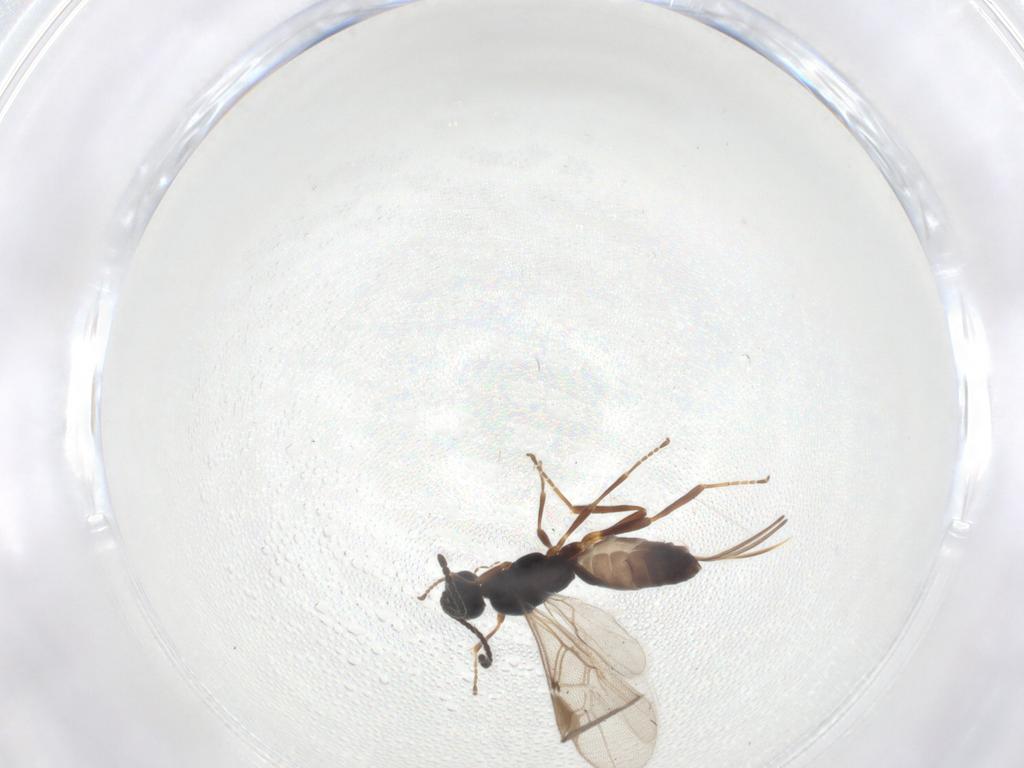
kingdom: Animalia
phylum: Arthropoda
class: Insecta
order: Hymenoptera
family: Braconidae
